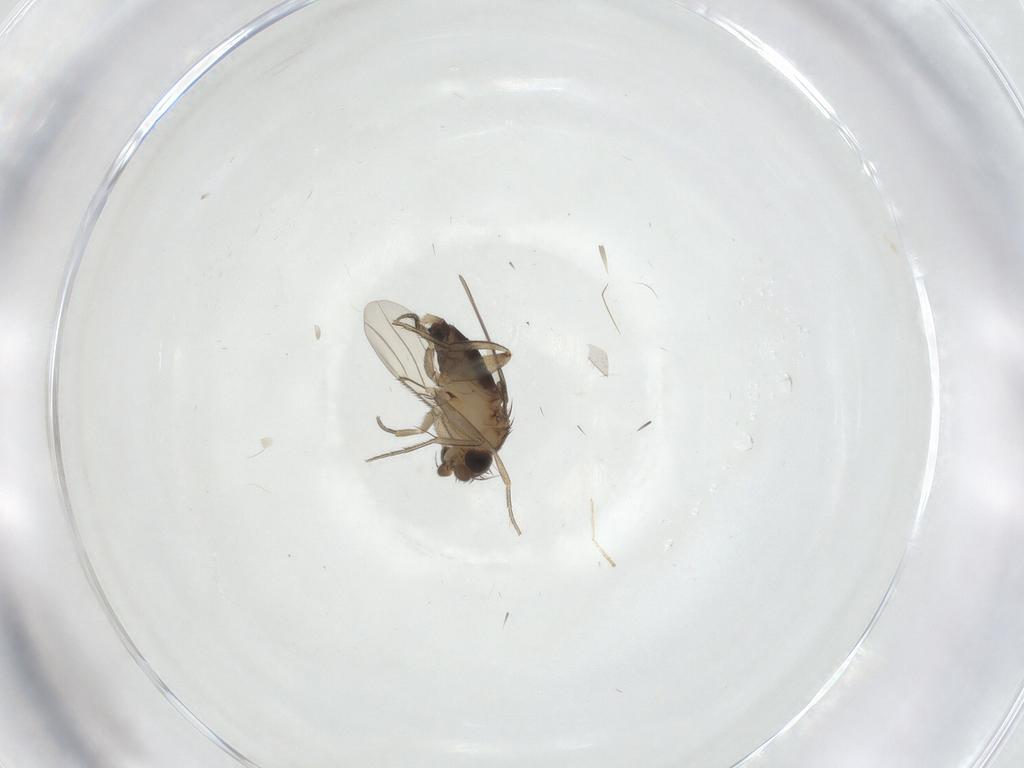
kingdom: Animalia
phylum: Arthropoda
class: Insecta
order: Diptera
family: Phoridae
